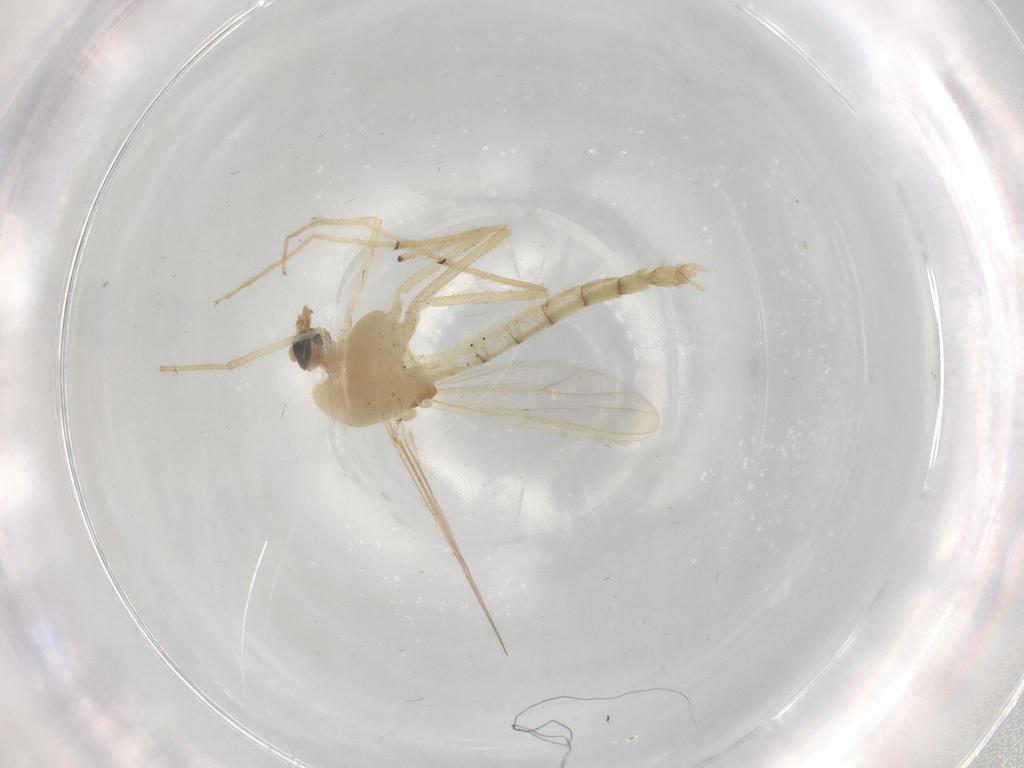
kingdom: Animalia
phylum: Arthropoda
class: Insecta
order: Diptera
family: Chironomidae
